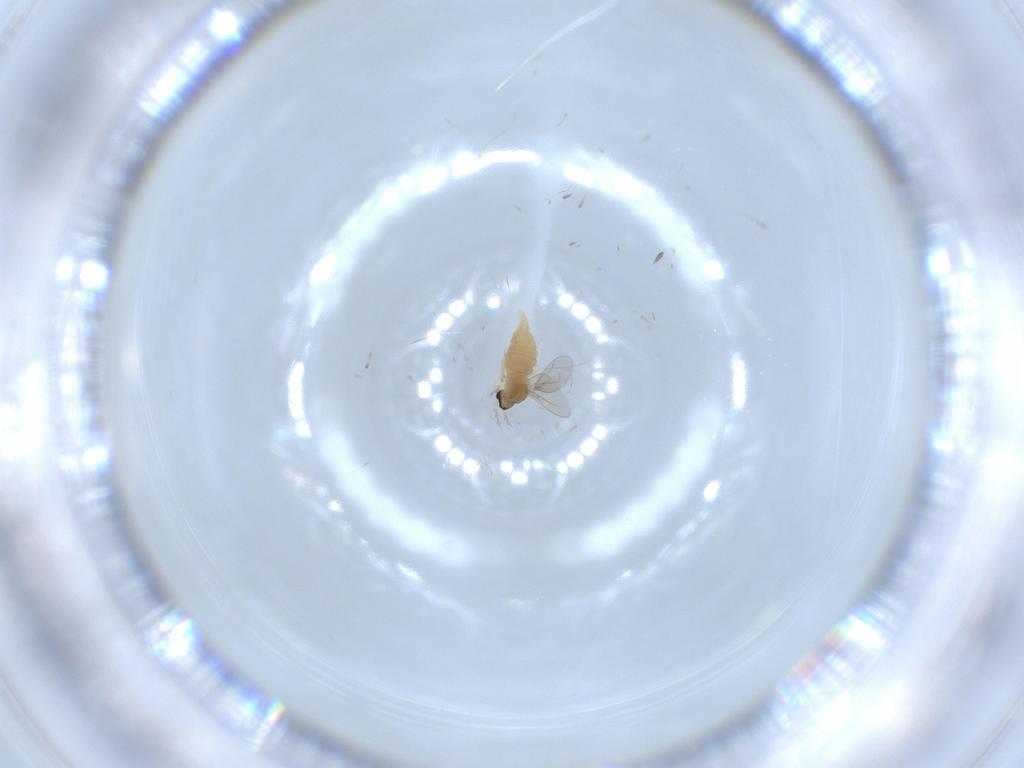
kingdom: Animalia
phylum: Arthropoda
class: Insecta
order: Diptera
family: Cecidomyiidae
